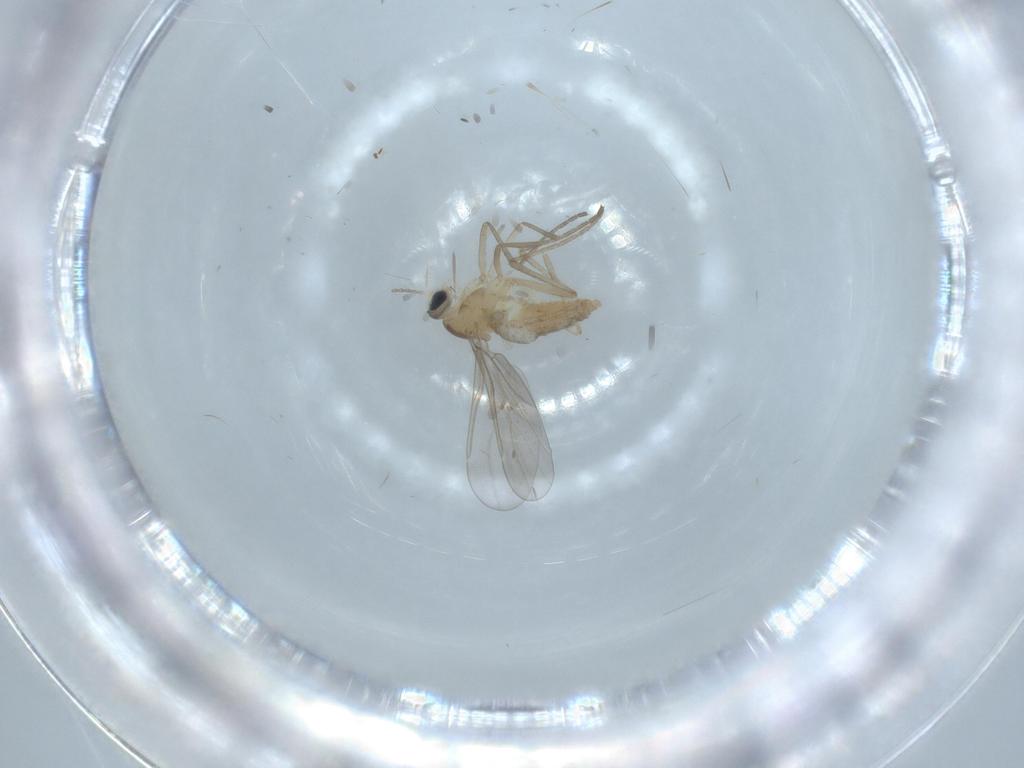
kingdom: Animalia
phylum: Arthropoda
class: Insecta
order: Diptera
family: Cecidomyiidae
